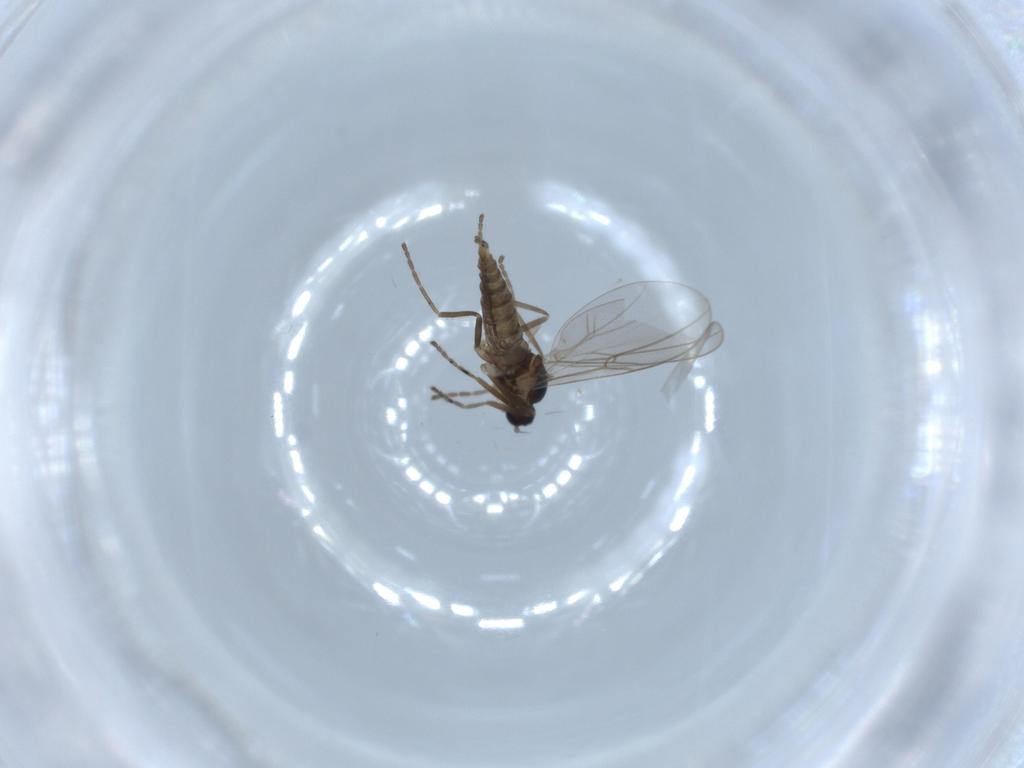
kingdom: Animalia
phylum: Arthropoda
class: Insecta
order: Diptera
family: Cecidomyiidae
